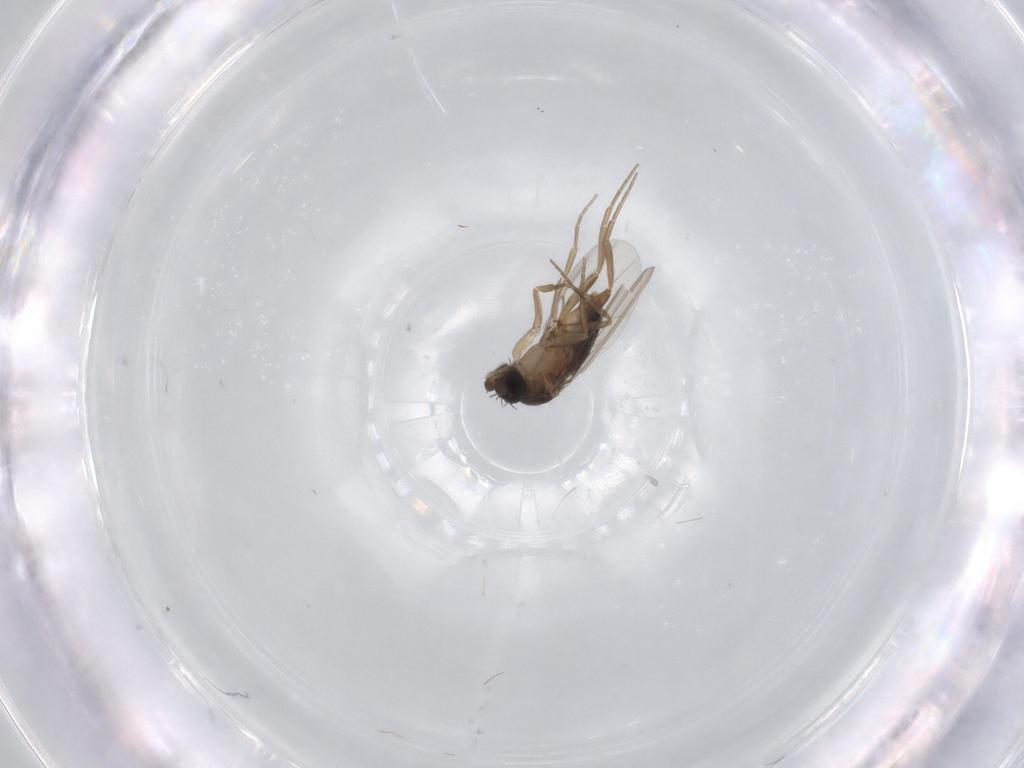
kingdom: Animalia
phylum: Arthropoda
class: Insecta
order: Diptera
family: Phoridae
